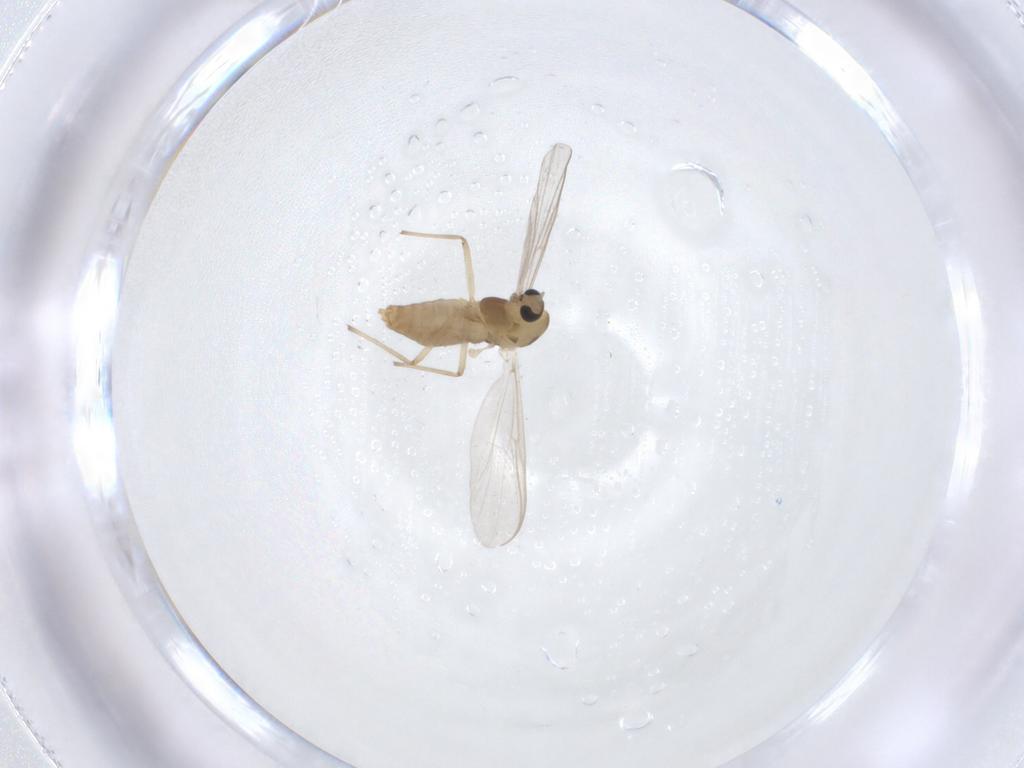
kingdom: Animalia
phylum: Arthropoda
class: Insecta
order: Diptera
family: Chironomidae
